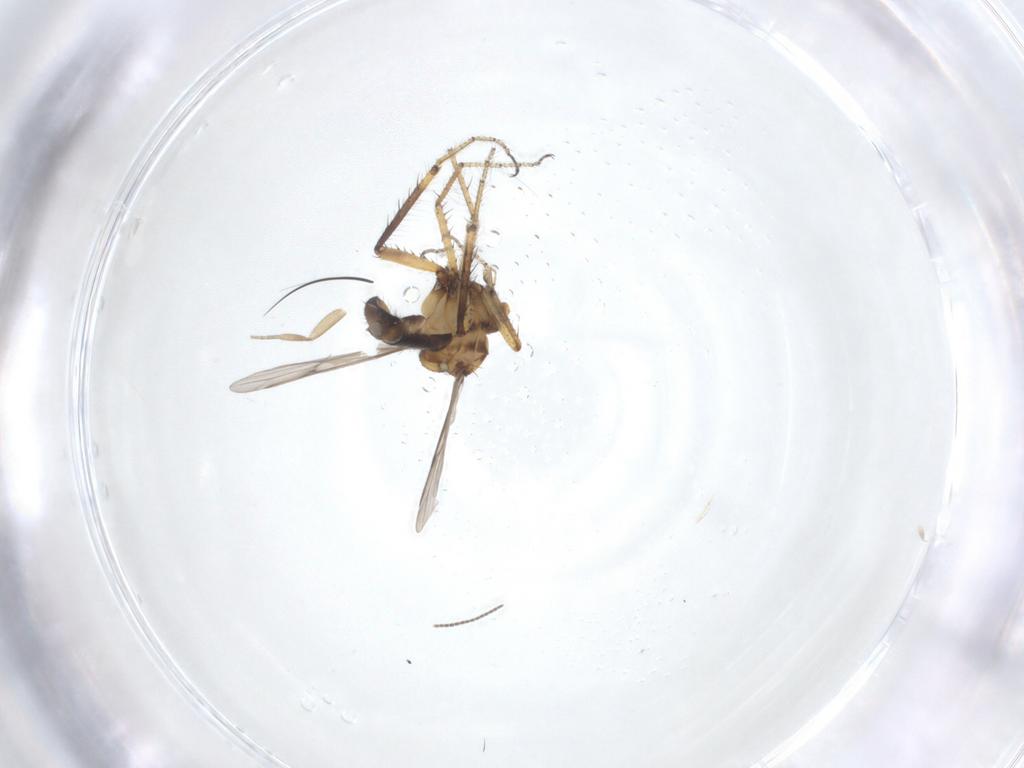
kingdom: Animalia
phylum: Arthropoda
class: Insecta
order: Diptera
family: Ceratopogonidae
